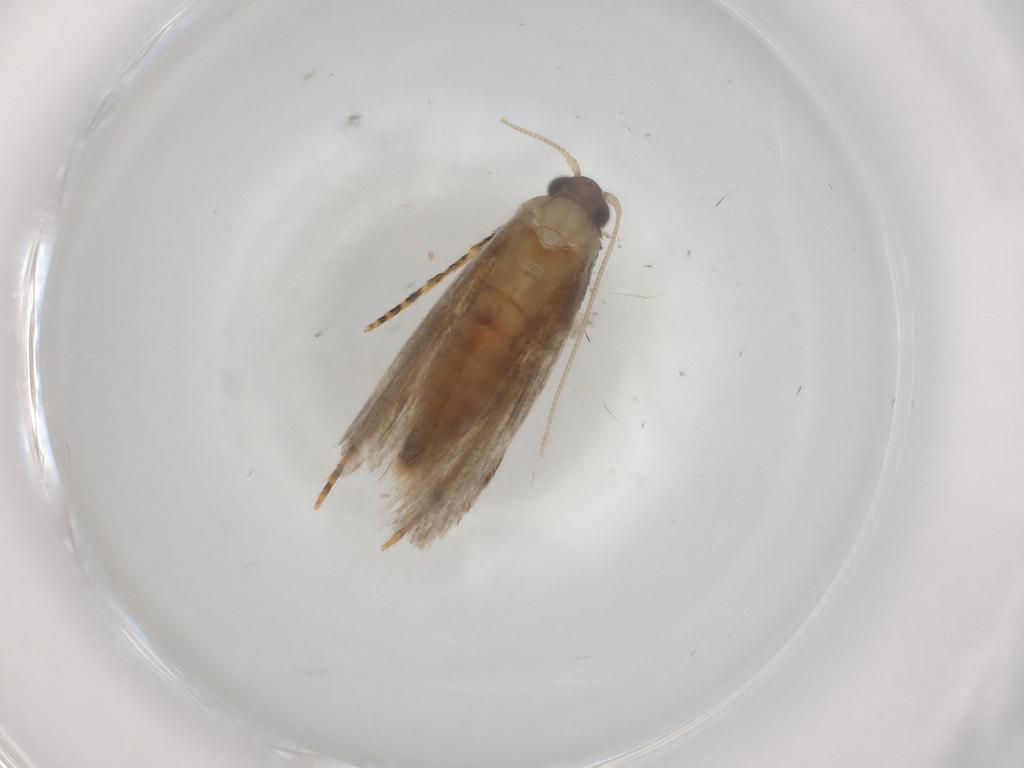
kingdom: Animalia
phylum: Arthropoda
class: Insecta
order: Lepidoptera
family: Tineidae
